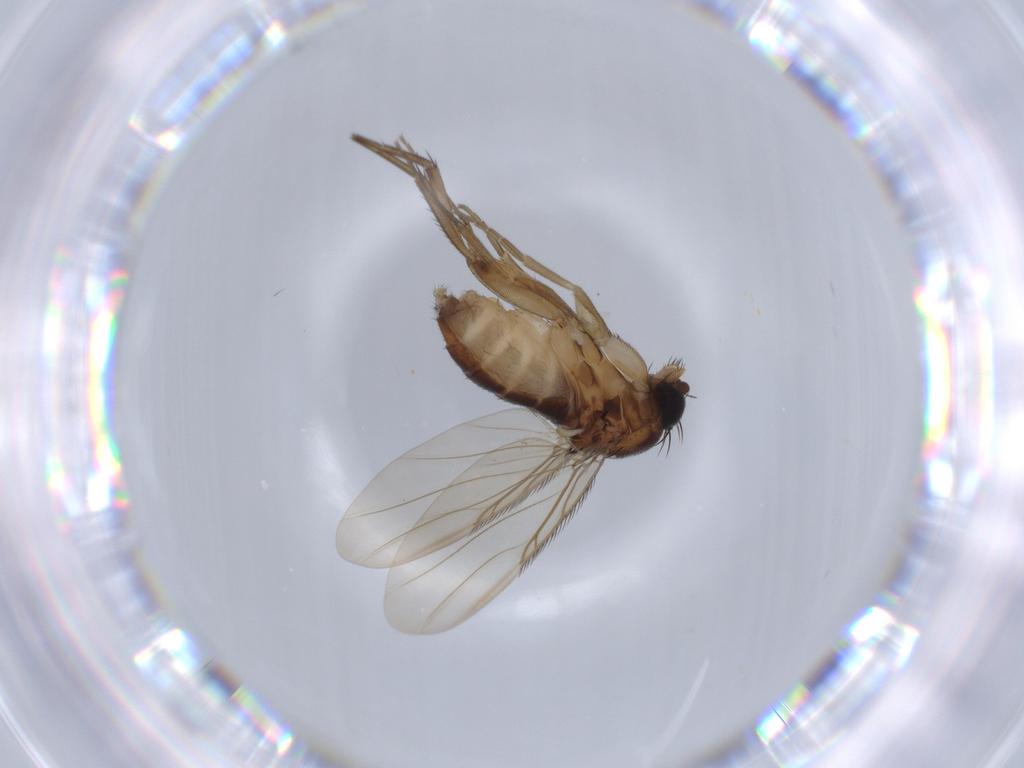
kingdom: Animalia
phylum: Arthropoda
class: Insecta
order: Diptera
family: Phoridae
